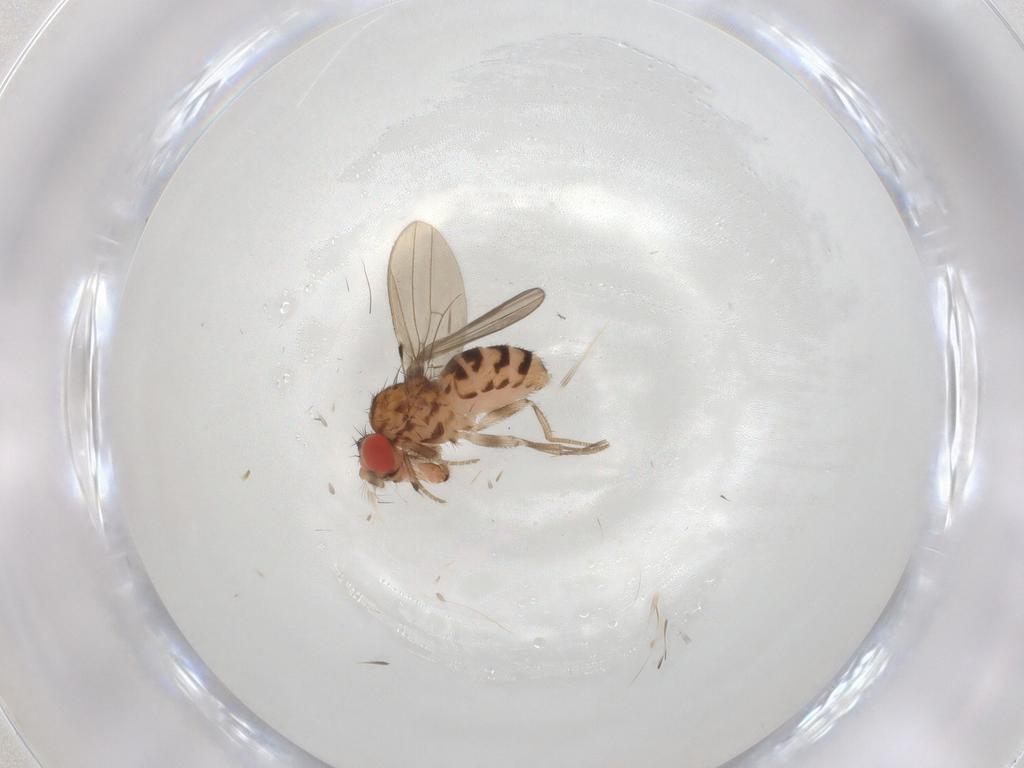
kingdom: Animalia
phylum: Arthropoda
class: Insecta
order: Diptera
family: Drosophilidae
